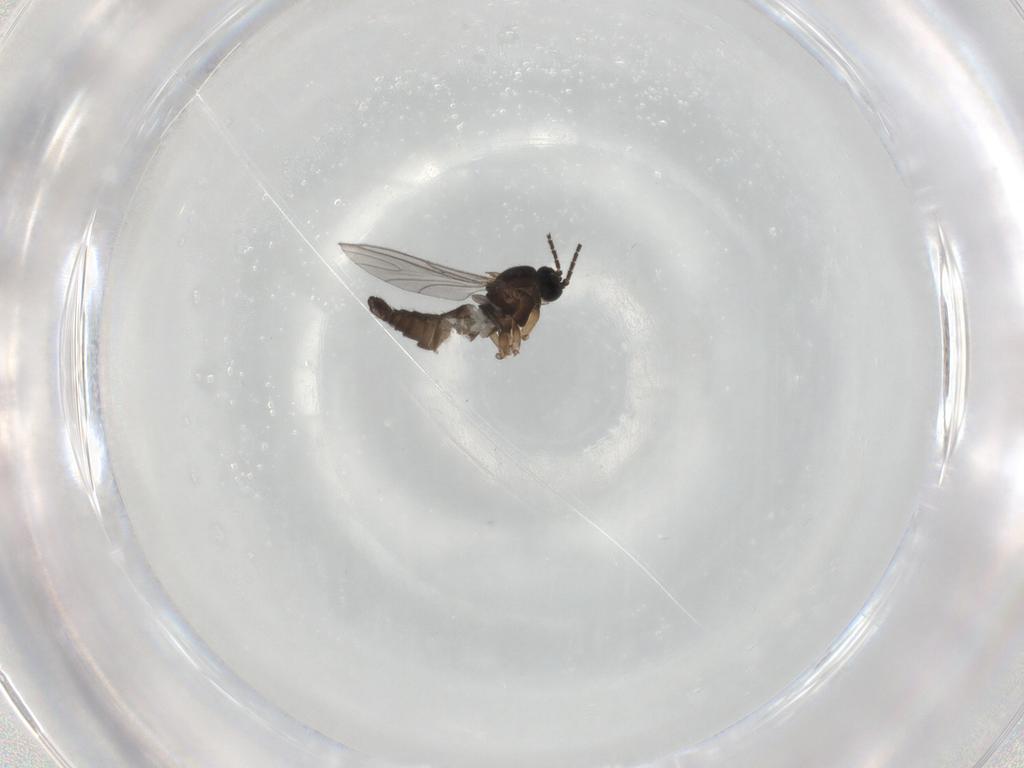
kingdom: Animalia
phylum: Arthropoda
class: Insecta
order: Diptera
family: Sciaridae
